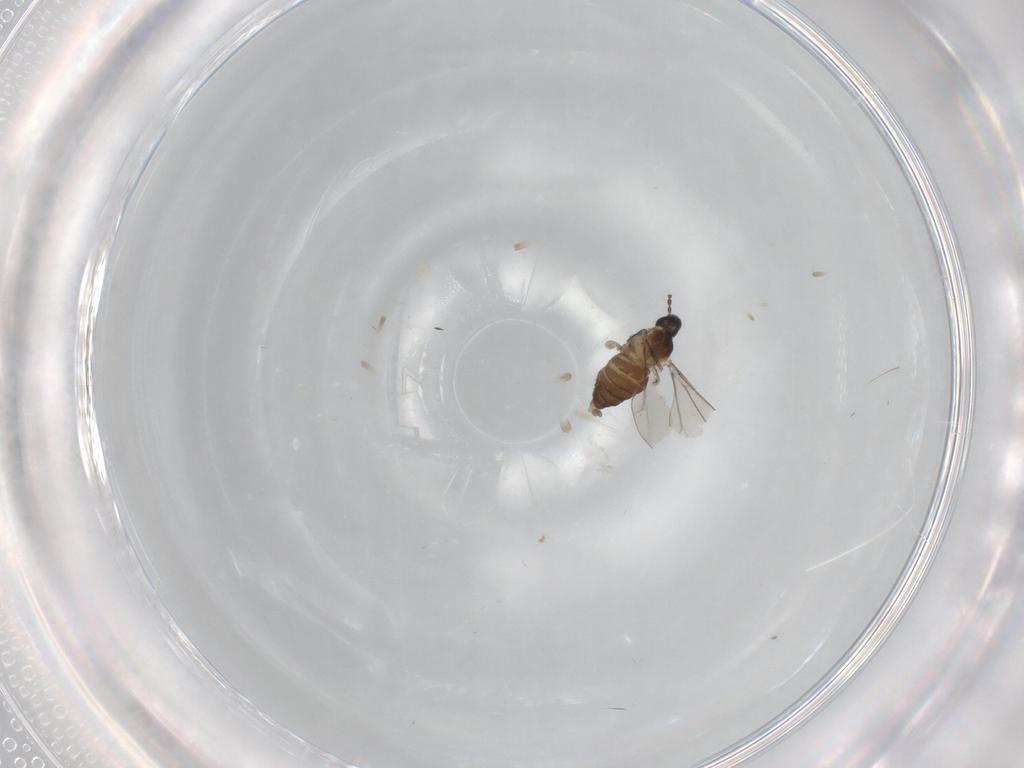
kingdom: Animalia
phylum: Arthropoda
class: Insecta
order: Diptera
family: Cecidomyiidae
